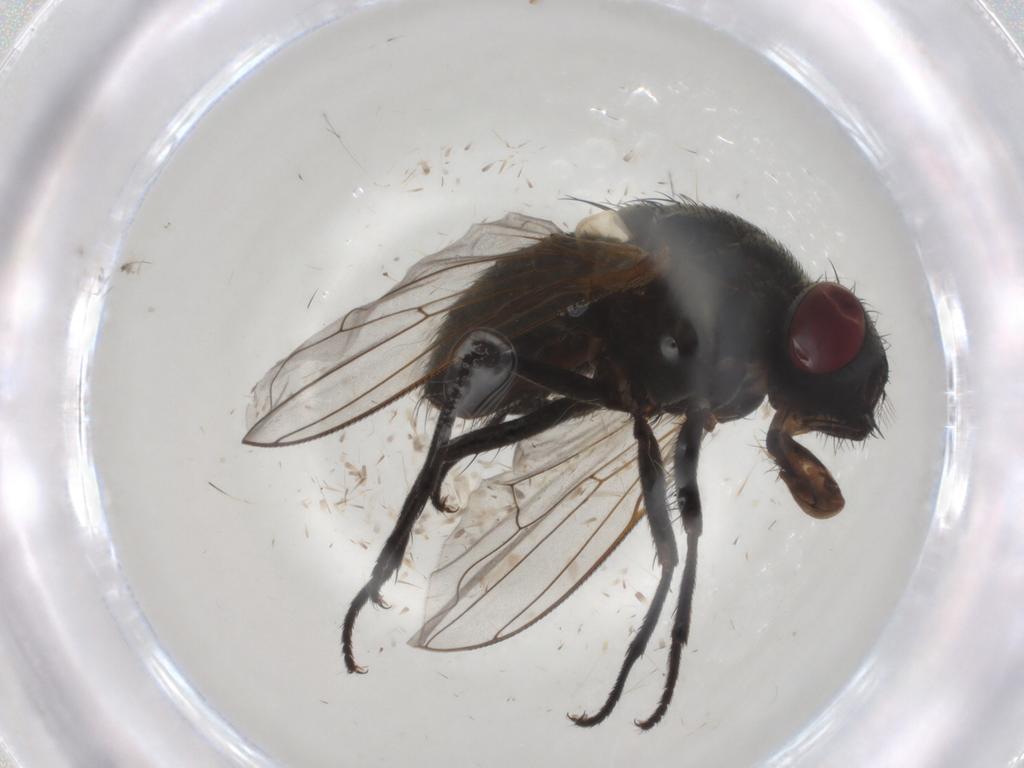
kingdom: Animalia
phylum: Arthropoda
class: Insecta
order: Diptera
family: Muscidae
